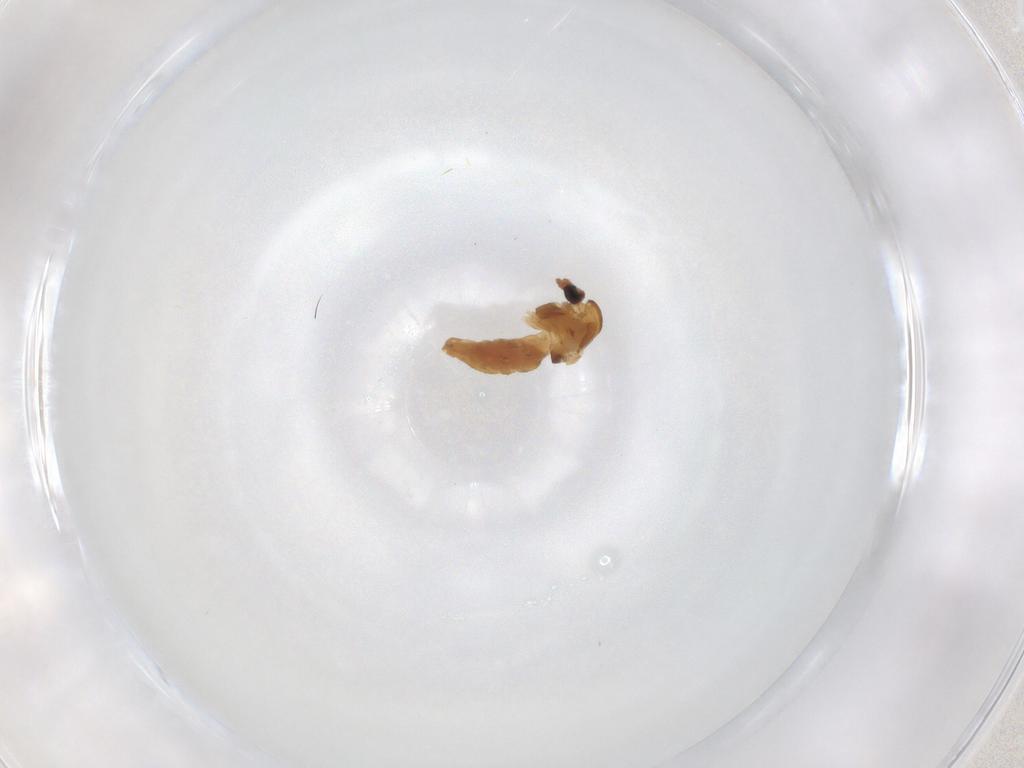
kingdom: Animalia
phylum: Arthropoda
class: Insecta
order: Diptera
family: Chironomidae
